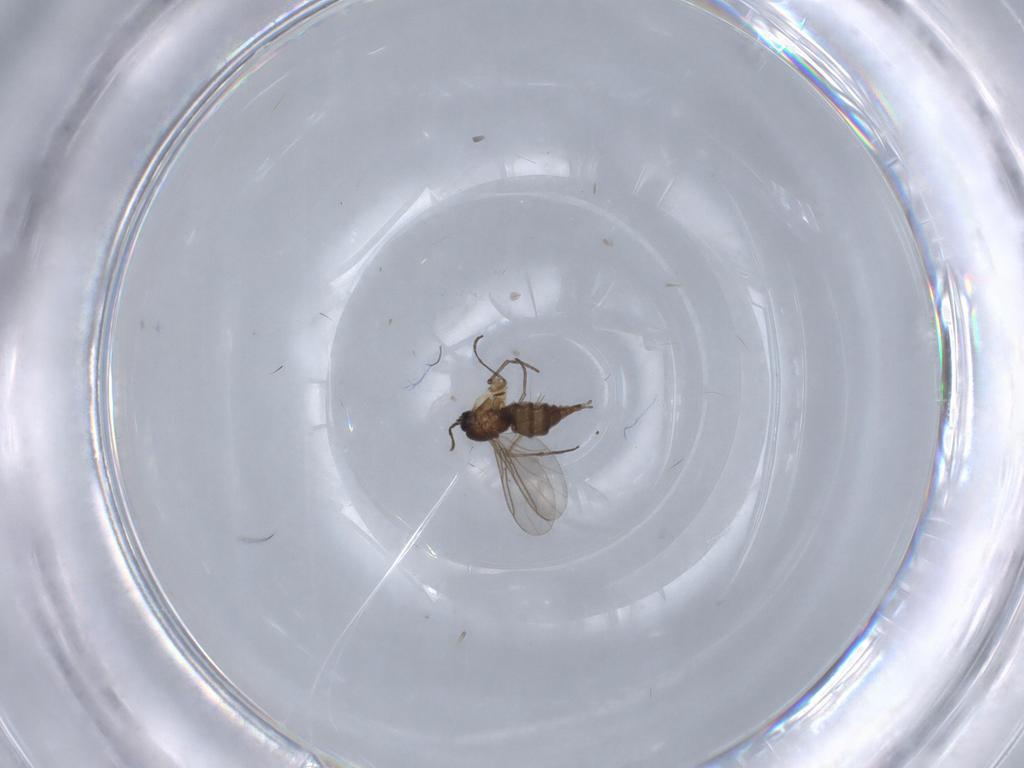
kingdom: Animalia
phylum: Arthropoda
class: Insecta
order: Diptera
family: Sciaridae
